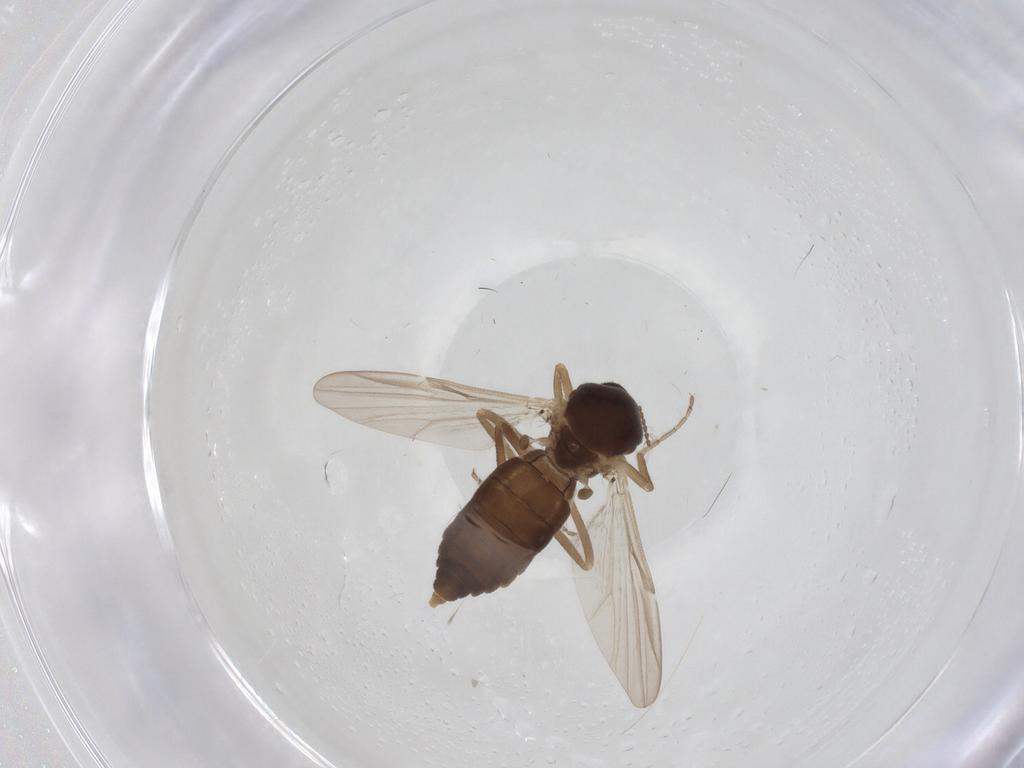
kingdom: Animalia
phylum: Arthropoda
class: Insecta
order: Diptera
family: Ceratopogonidae
